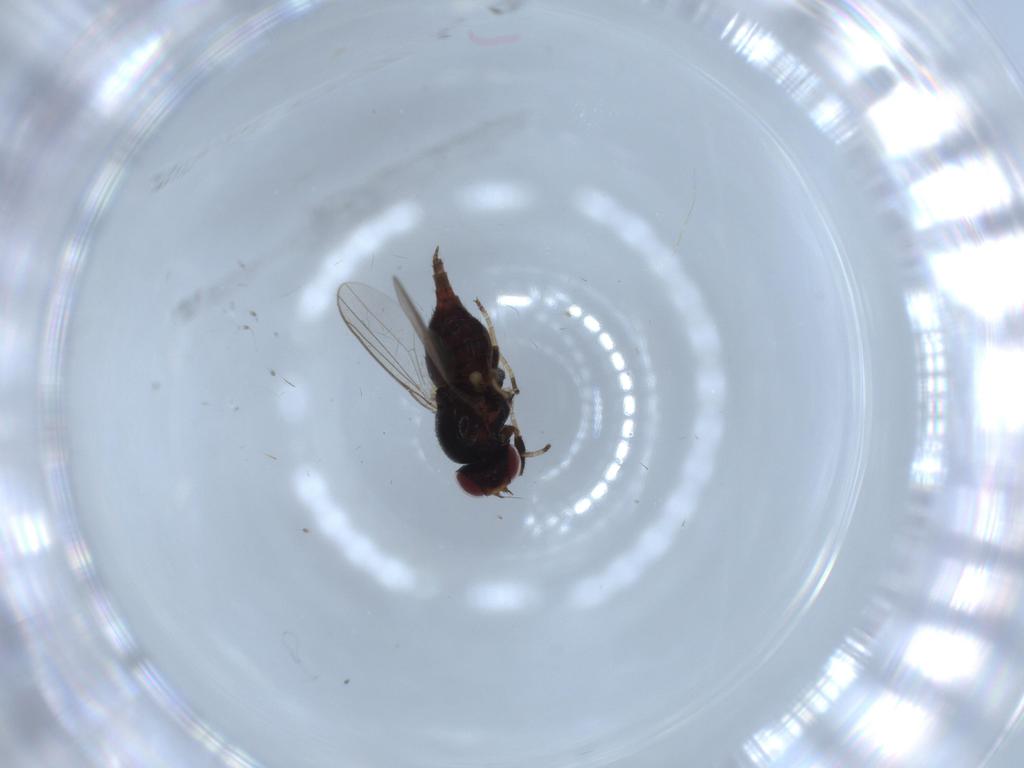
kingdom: Animalia
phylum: Arthropoda
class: Insecta
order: Diptera
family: Chloropidae
